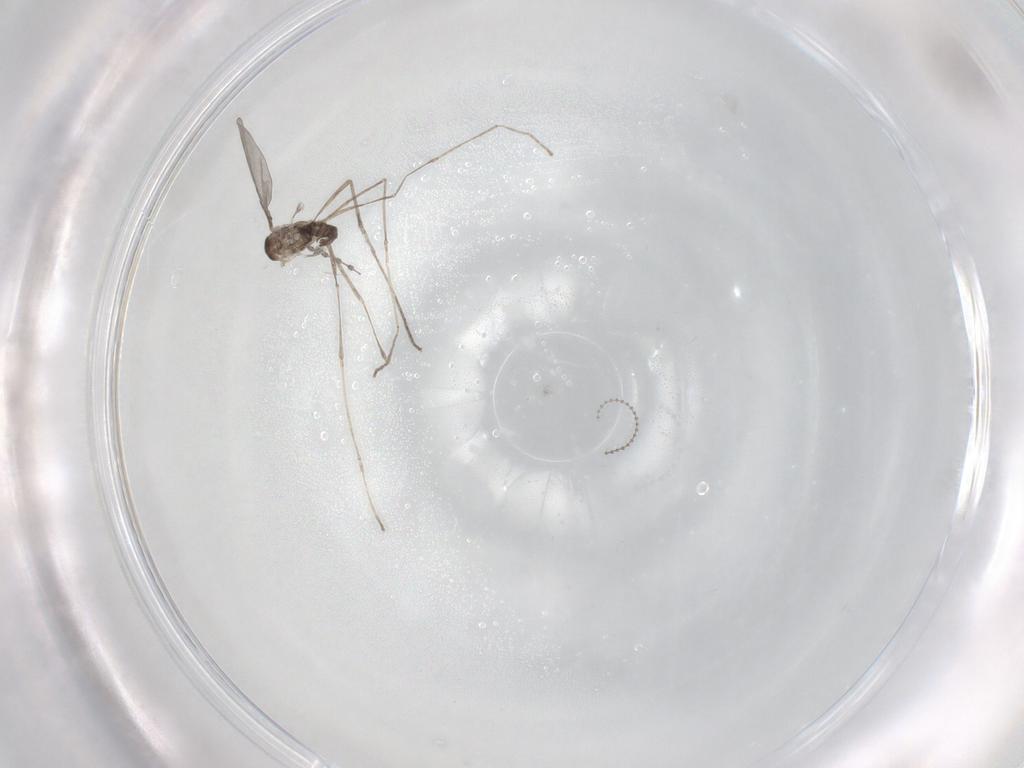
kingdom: Animalia
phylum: Arthropoda
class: Insecta
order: Diptera
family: Cecidomyiidae
